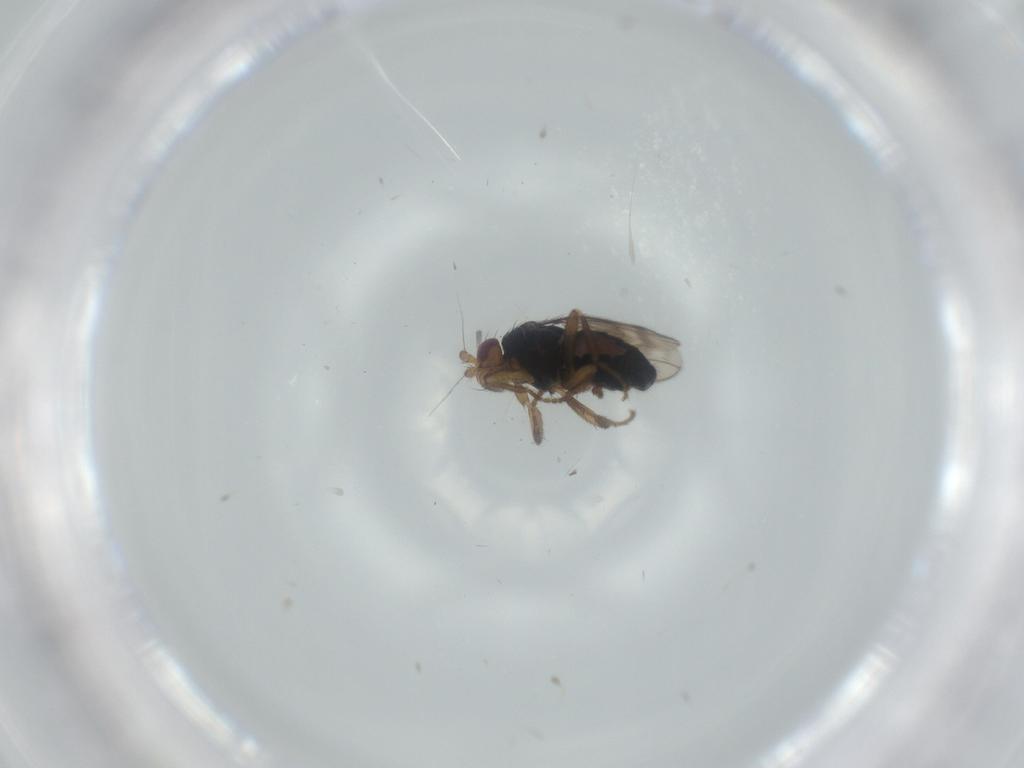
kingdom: Animalia
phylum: Arthropoda
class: Insecta
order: Diptera
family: Sphaeroceridae
